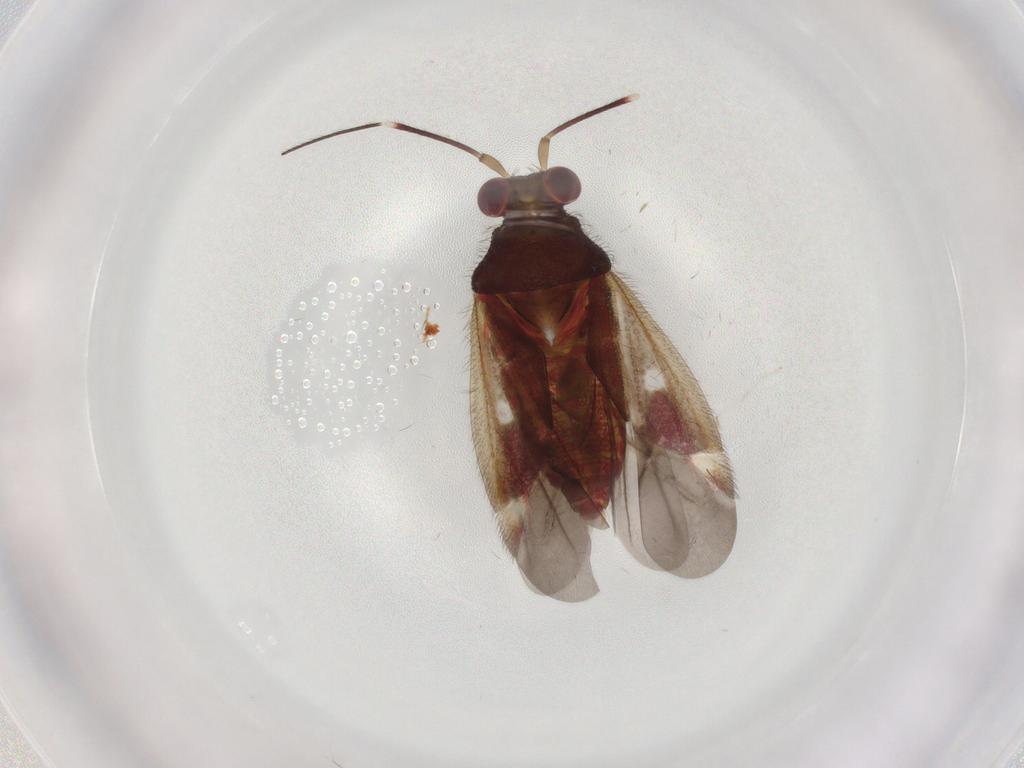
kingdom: Animalia
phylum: Arthropoda
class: Insecta
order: Hemiptera
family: Miridae
